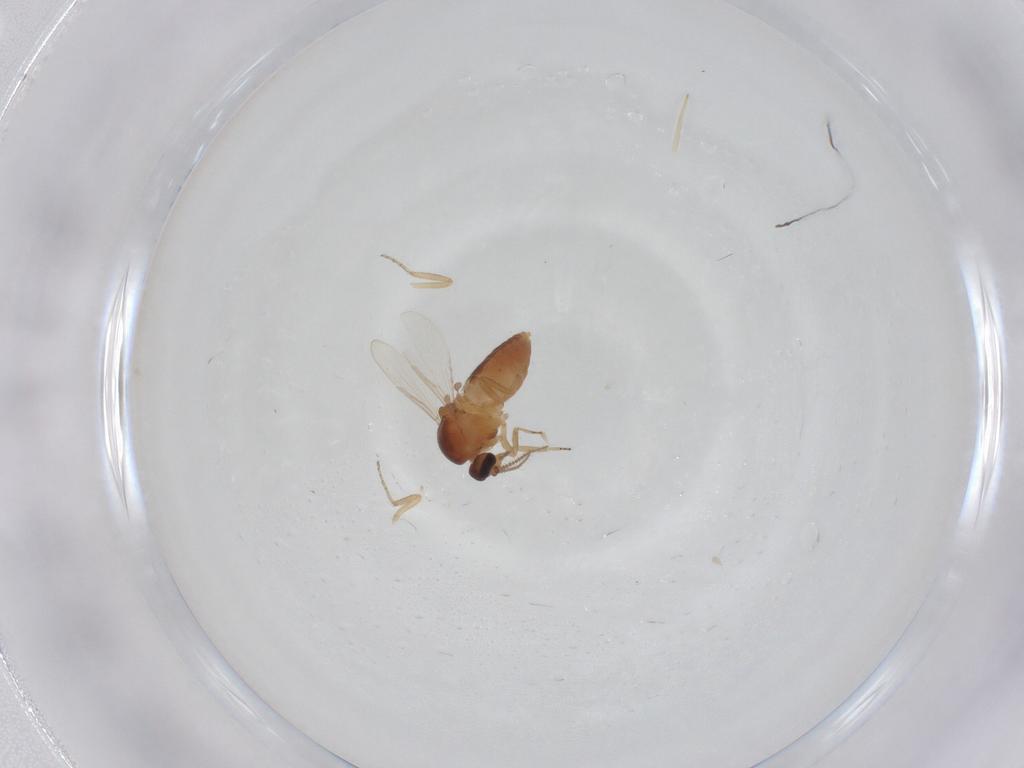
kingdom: Animalia
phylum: Arthropoda
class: Insecta
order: Diptera
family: Ceratopogonidae
